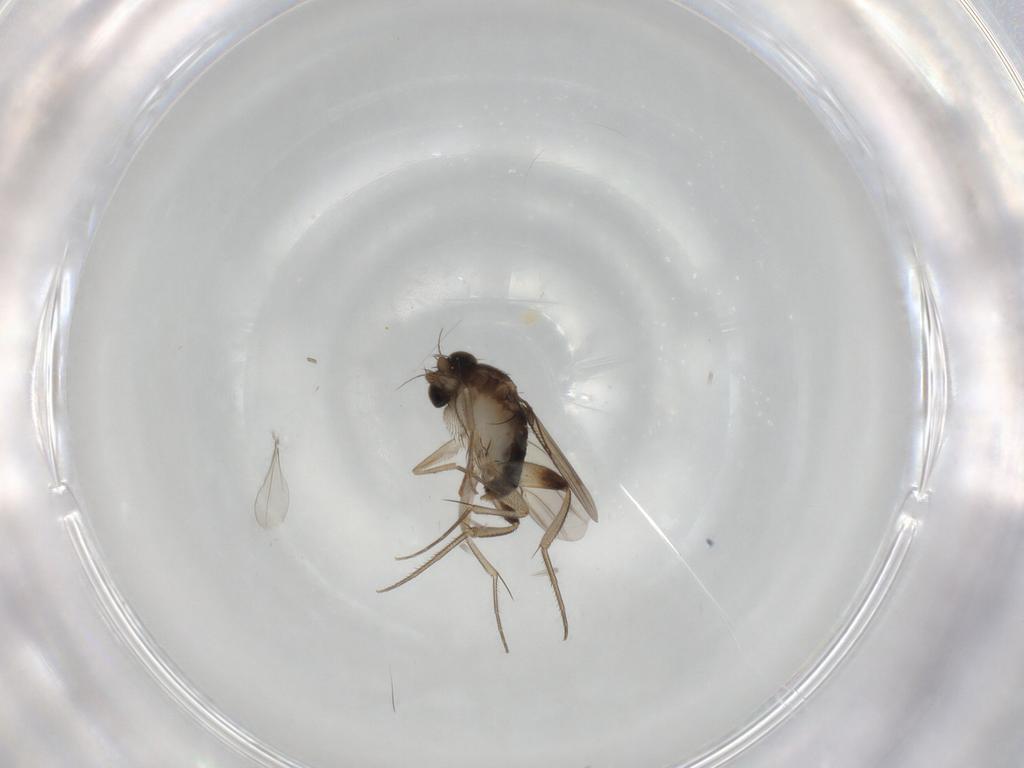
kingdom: Animalia
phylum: Arthropoda
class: Insecta
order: Diptera
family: Phoridae
